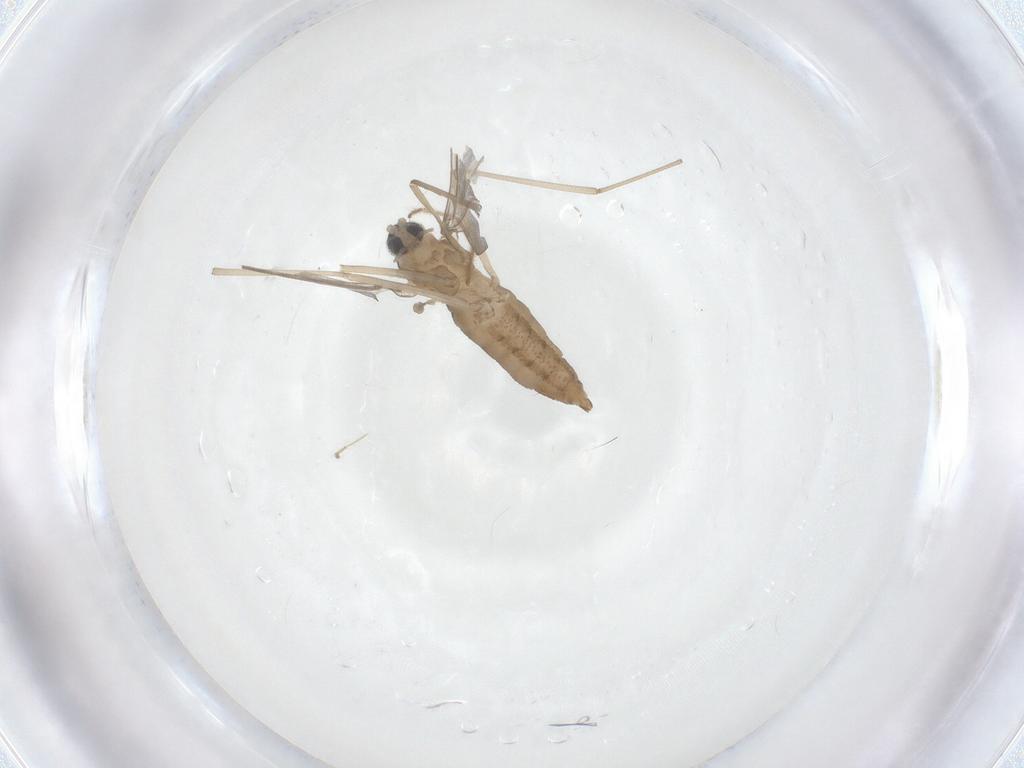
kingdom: Animalia
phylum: Arthropoda
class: Insecta
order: Diptera
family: Cecidomyiidae
